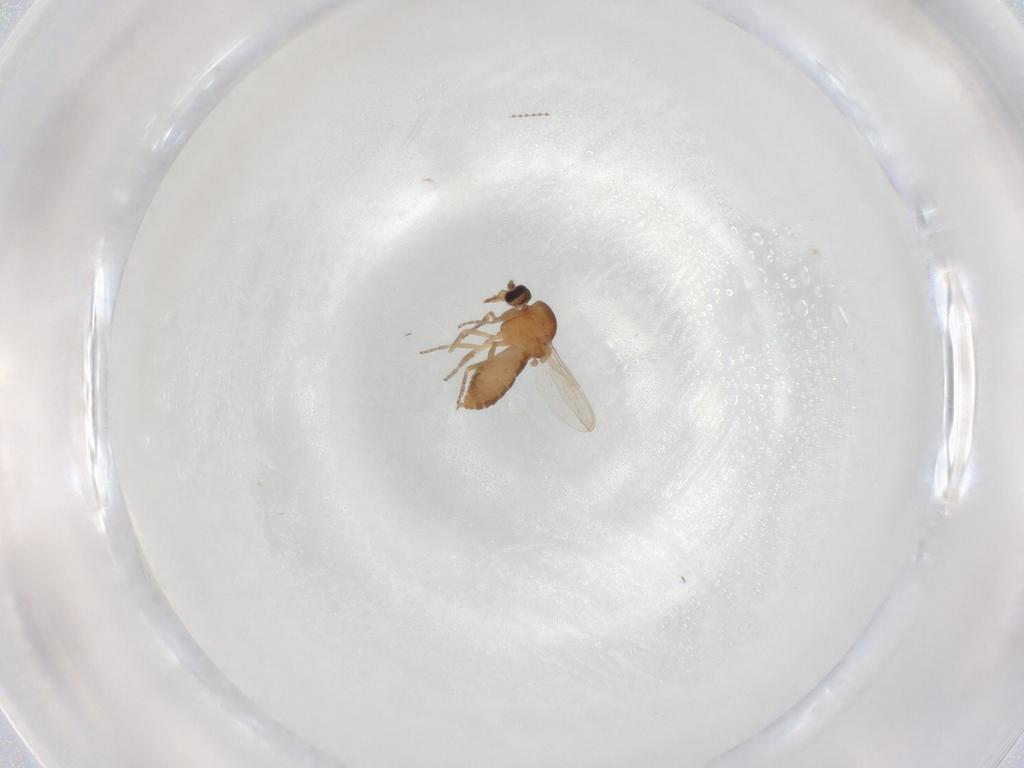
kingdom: Animalia
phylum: Arthropoda
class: Insecta
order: Diptera
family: Ceratopogonidae
